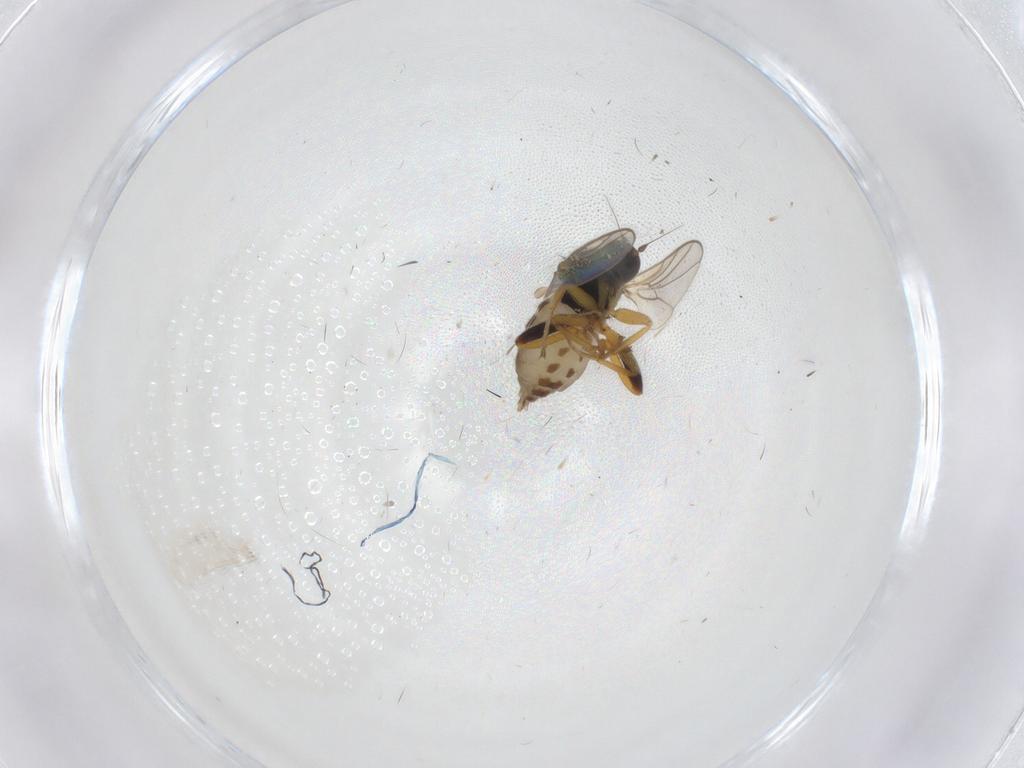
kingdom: Animalia
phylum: Arthropoda
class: Insecta
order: Diptera
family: Hybotidae
